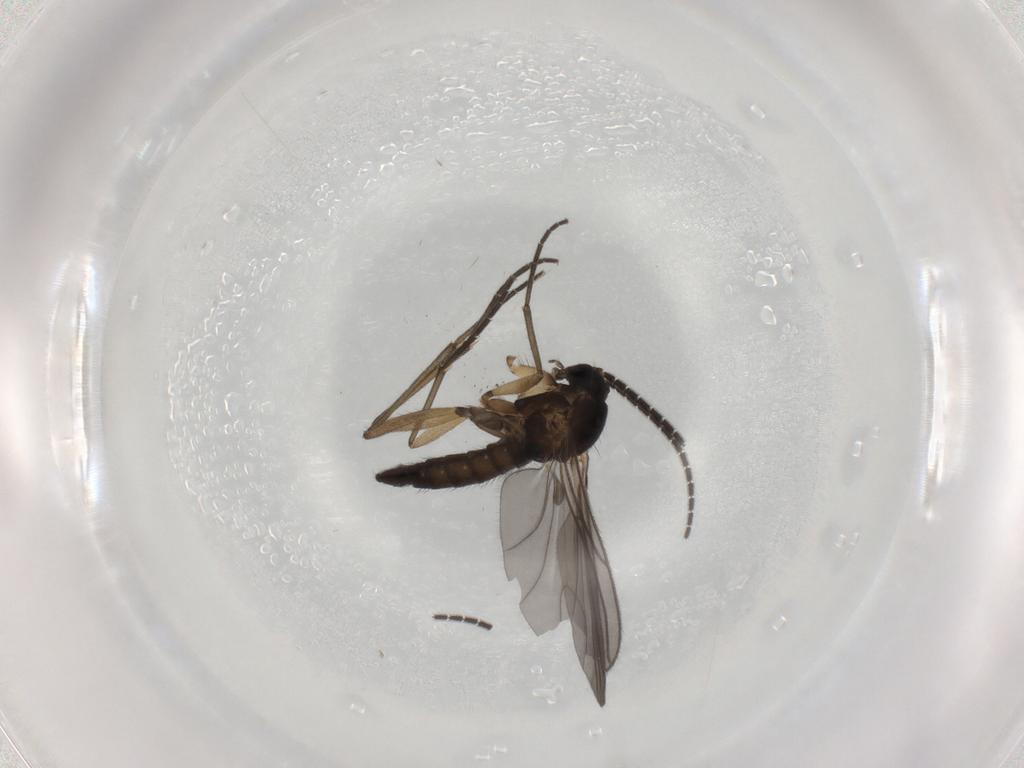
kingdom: Animalia
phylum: Arthropoda
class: Insecta
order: Diptera
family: Sciaridae
